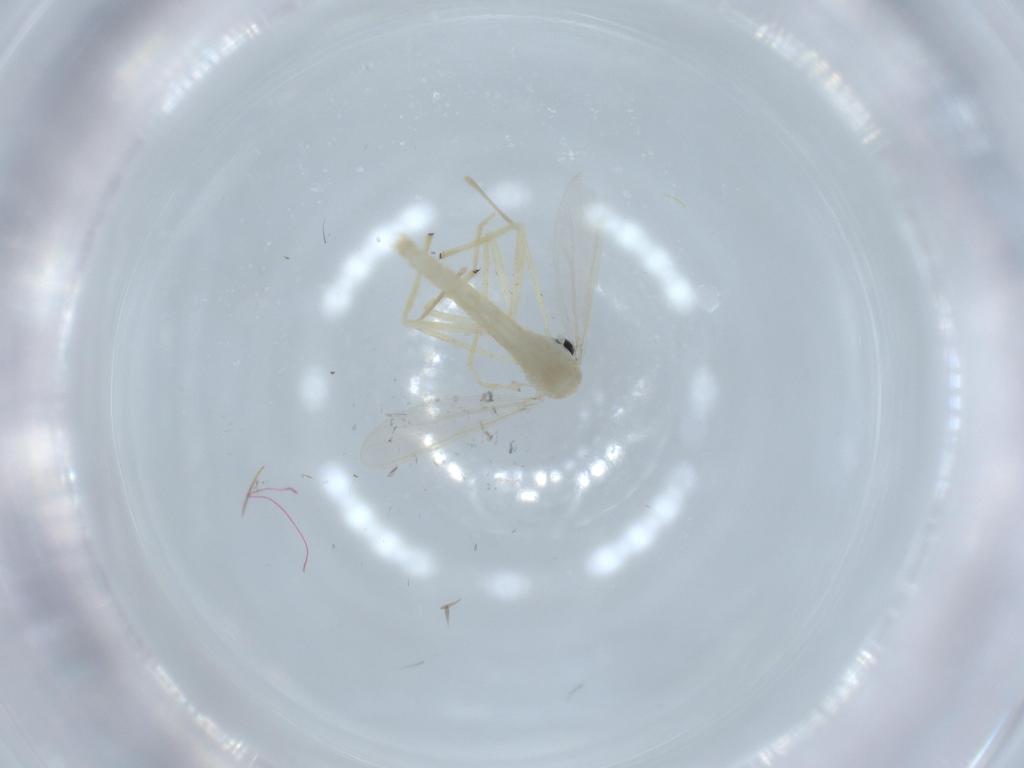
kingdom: Animalia
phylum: Arthropoda
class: Insecta
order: Diptera
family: Chironomidae
